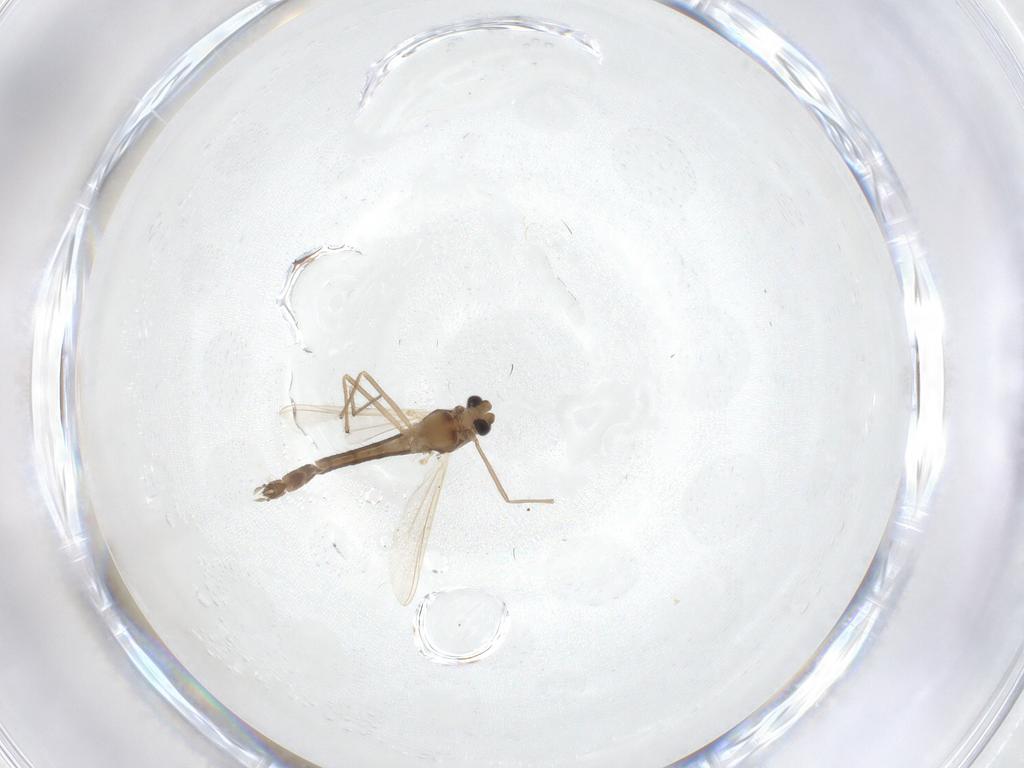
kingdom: Animalia
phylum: Arthropoda
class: Insecta
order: Diptera
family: Chironomidae
